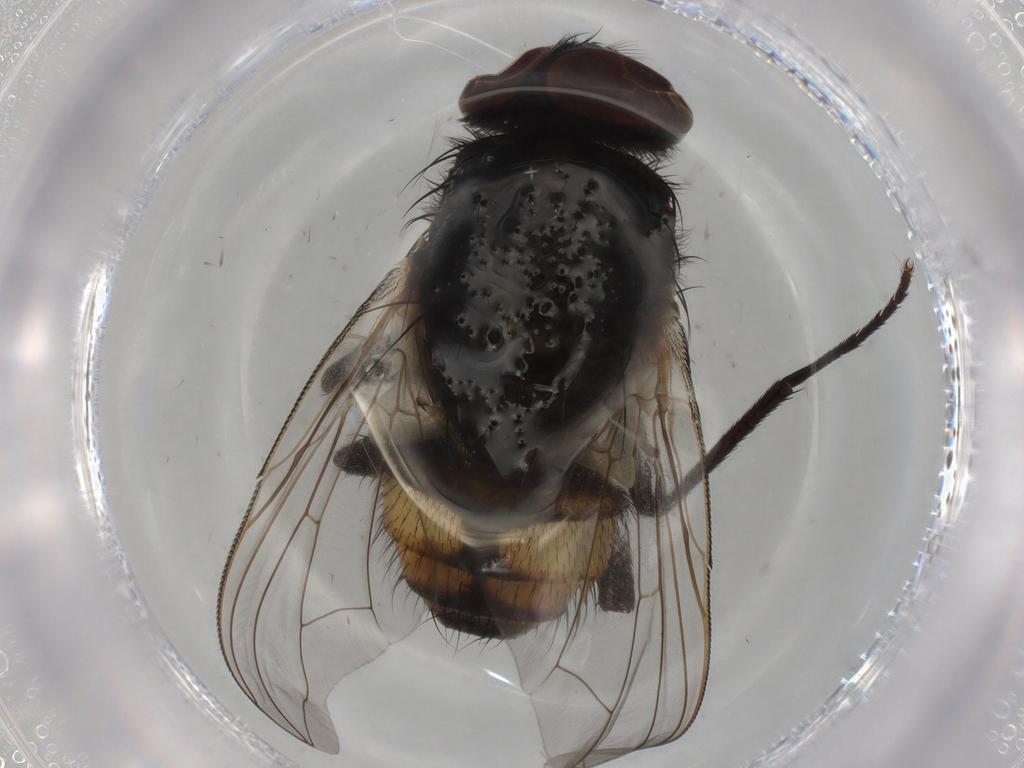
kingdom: Animalia
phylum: Arthropoda
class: Insecta
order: Diptera
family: Muscidae
